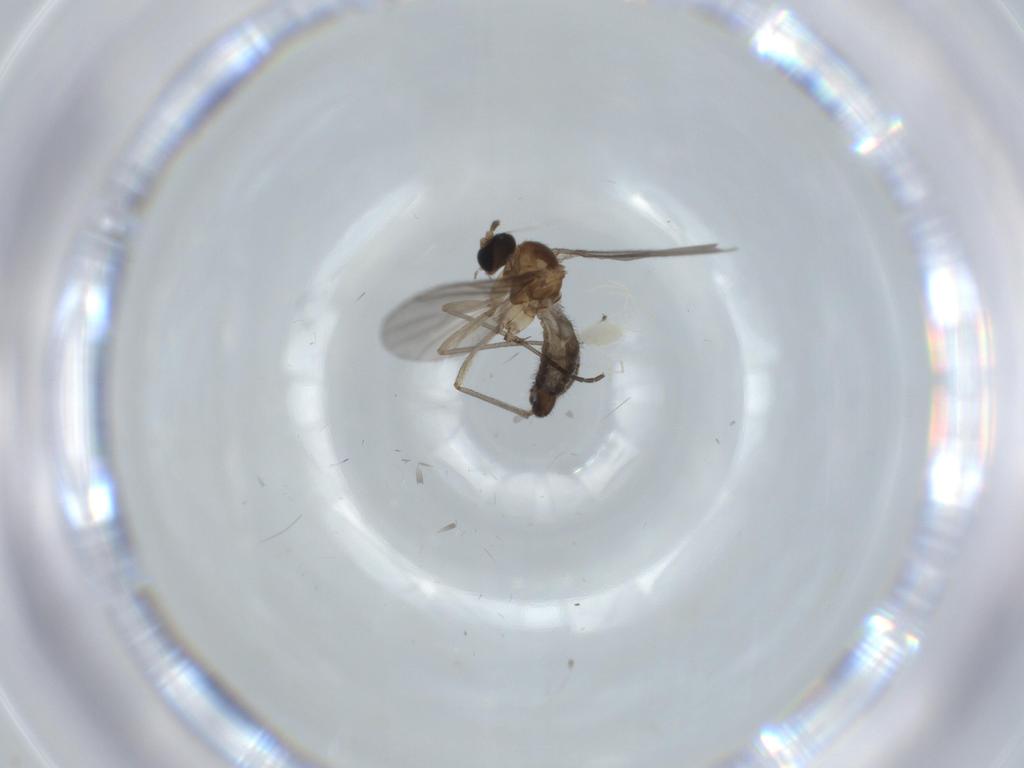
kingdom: Animalia
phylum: Arthropoda
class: Insecta
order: Diptera
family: Sciaridae
